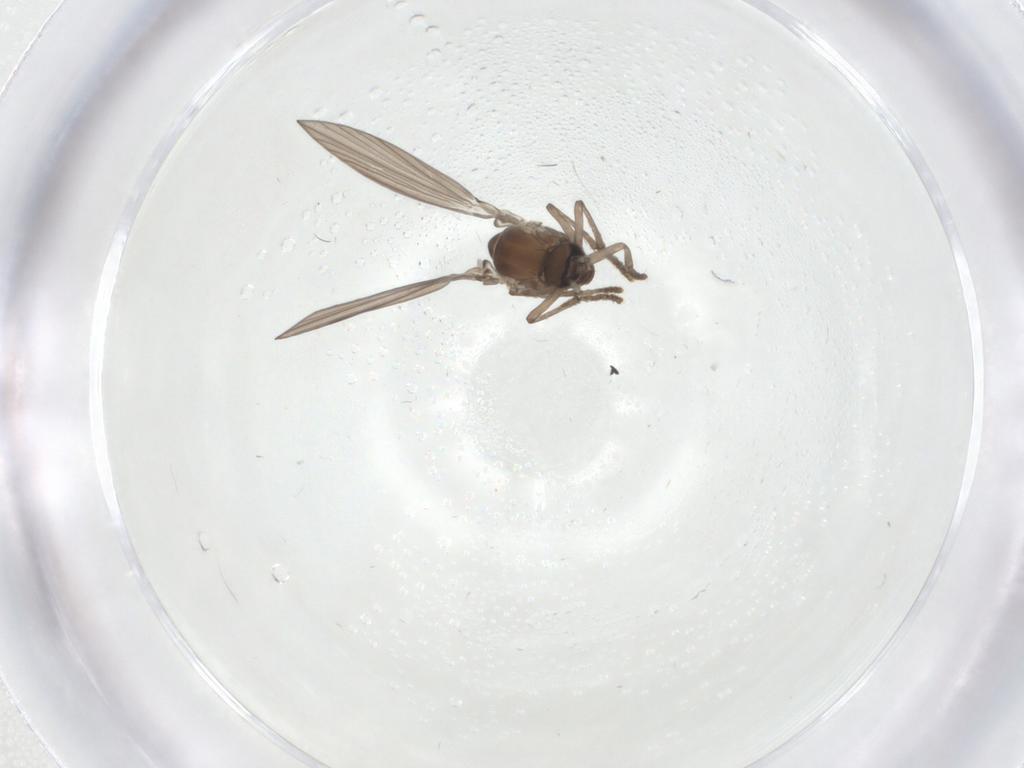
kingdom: Animalia
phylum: Arthropoda
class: Insecta
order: Diptera
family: Psychodidae
